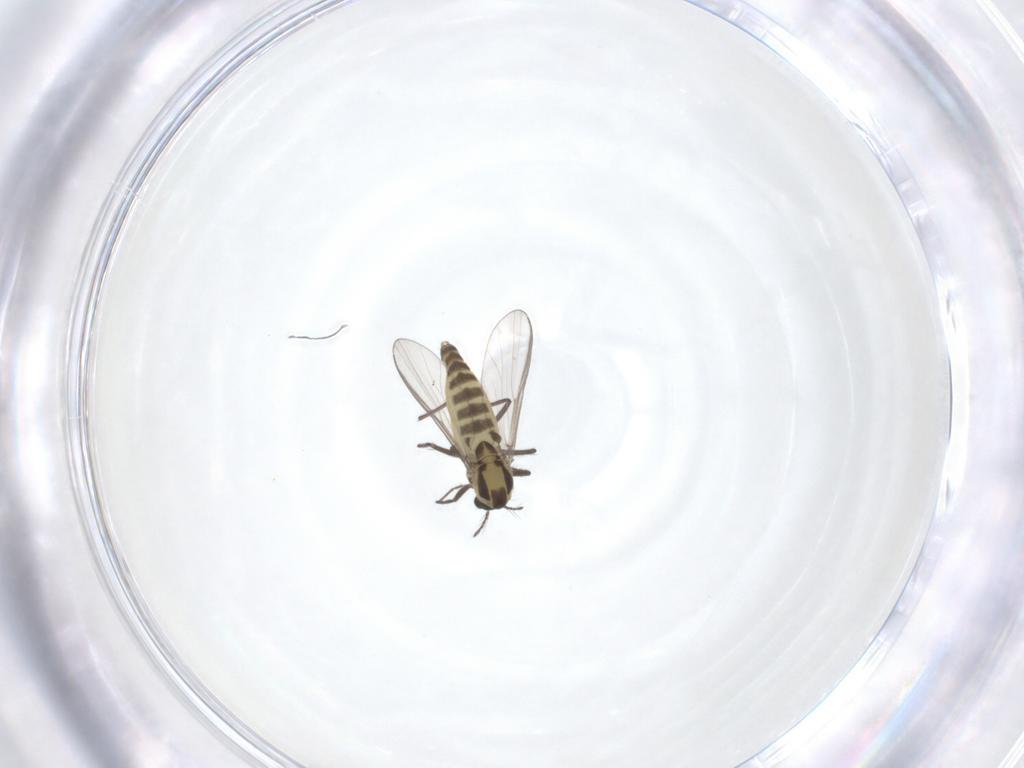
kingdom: Animalia
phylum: Arthropoda
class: Insecta
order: Diptera
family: Chironomidae
